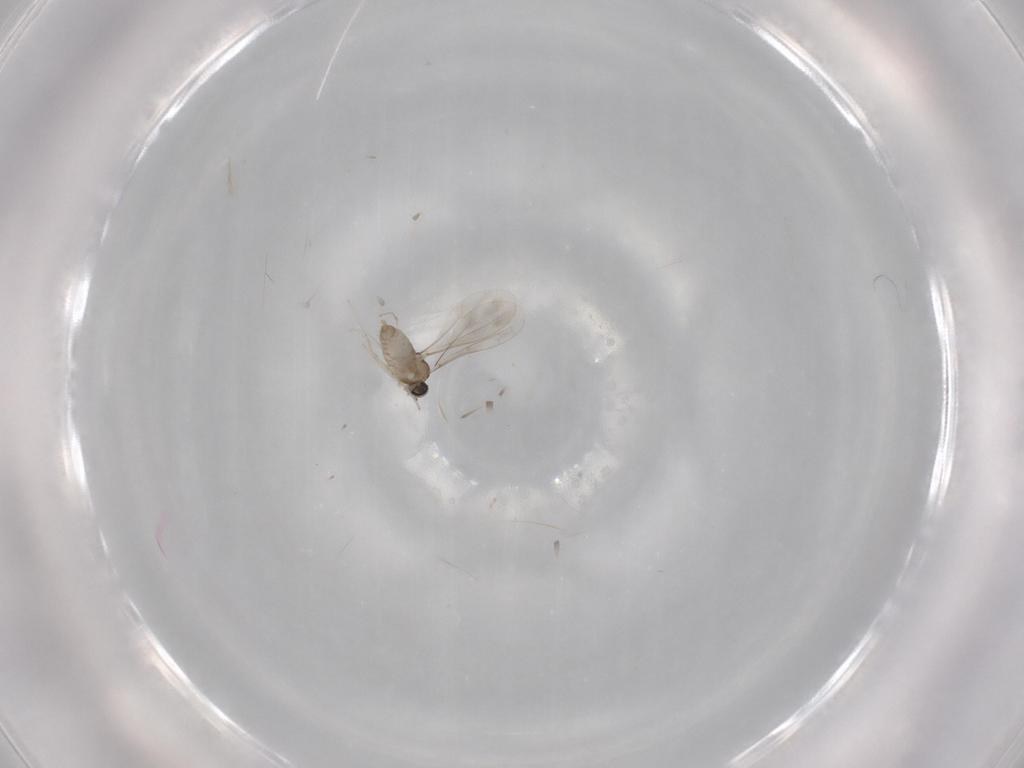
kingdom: Animalia
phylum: Arthropoda
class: Insecta
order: Diptera
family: Cecidomyiidae
